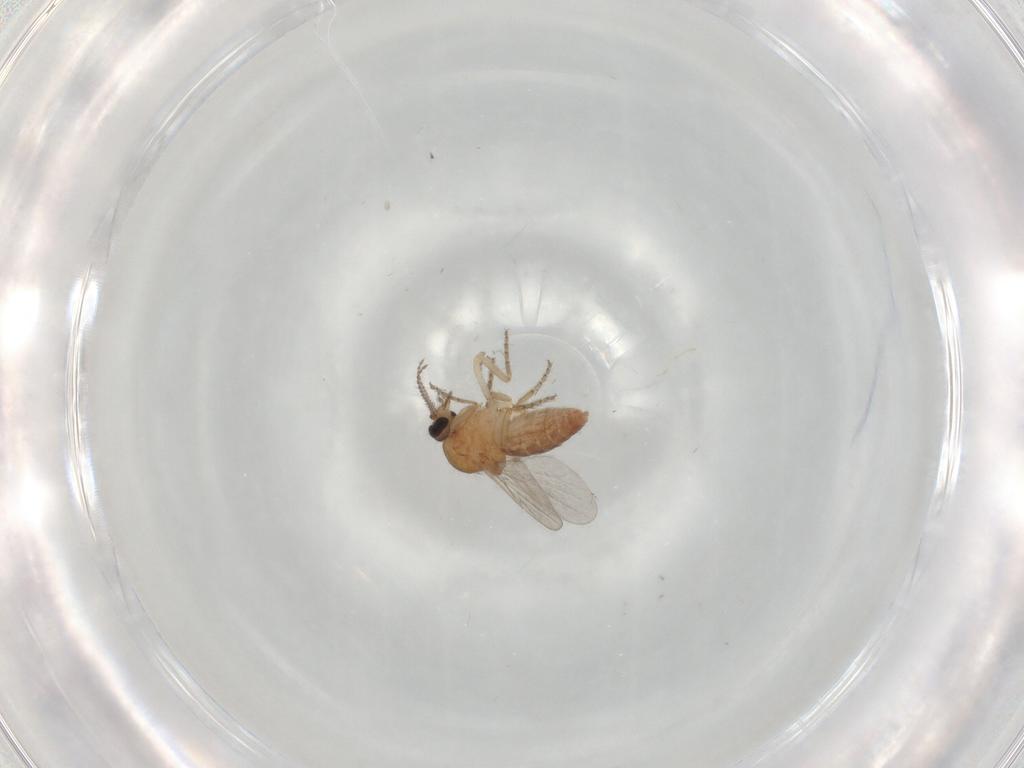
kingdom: Animalia
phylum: Arthropoda
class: Insecta
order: Diptera
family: Ceratopogonidae
